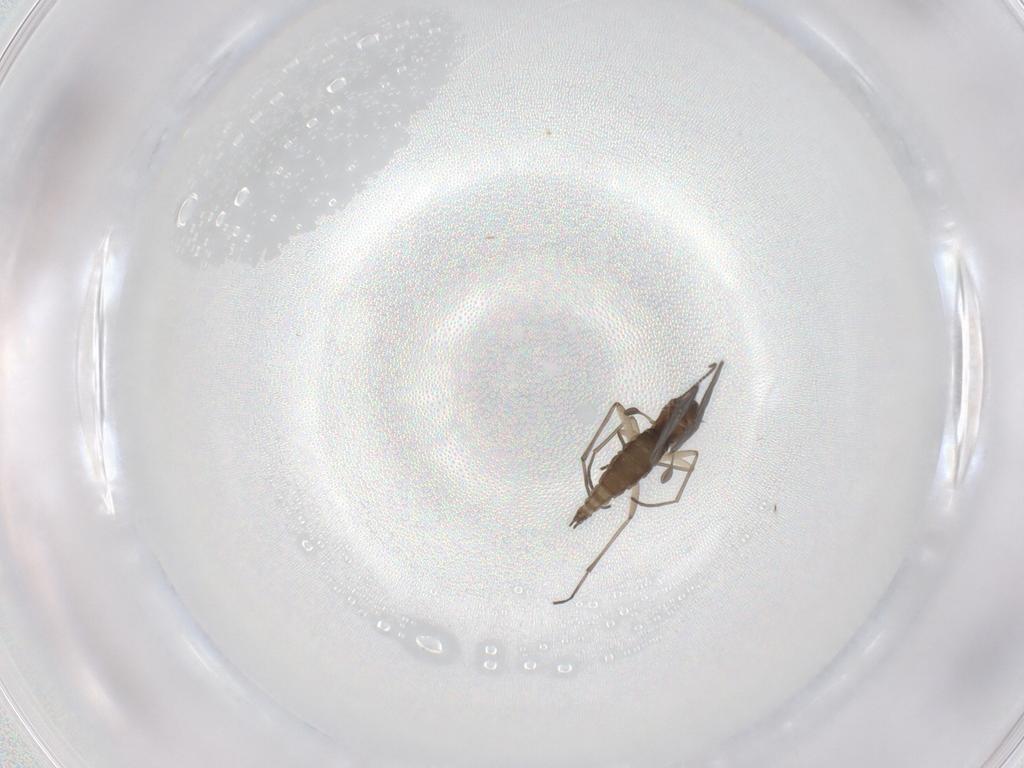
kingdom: Animalia
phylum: Arthropoda
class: Insecta
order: Diptera
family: Sciaridae
